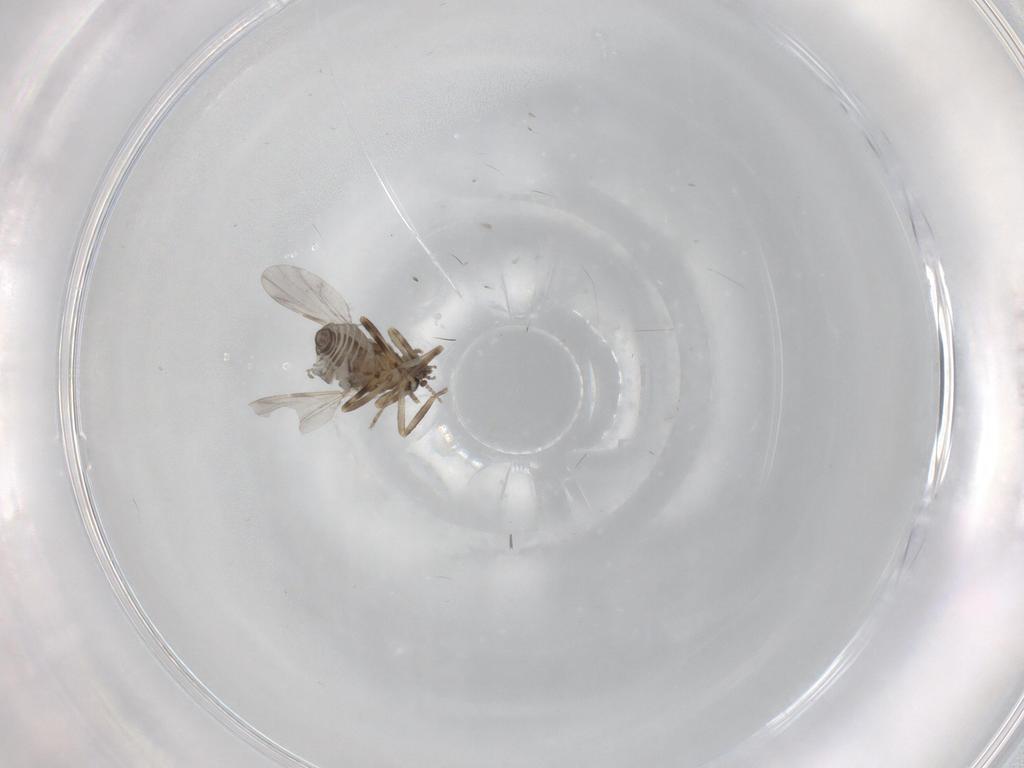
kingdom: Animalia
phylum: Arthropoda
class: Insecta
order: Diptera
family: Ceratopogonidae
